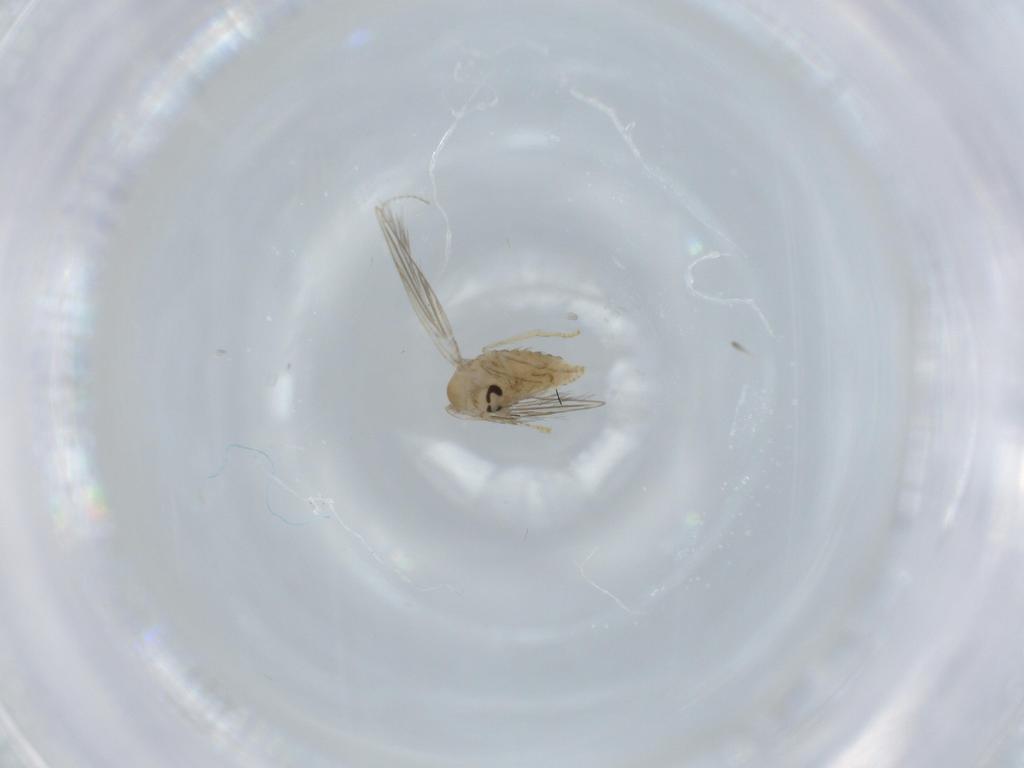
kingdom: Animalia
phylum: Arthropoda
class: Insecta
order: Diptera
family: Psychodidae
